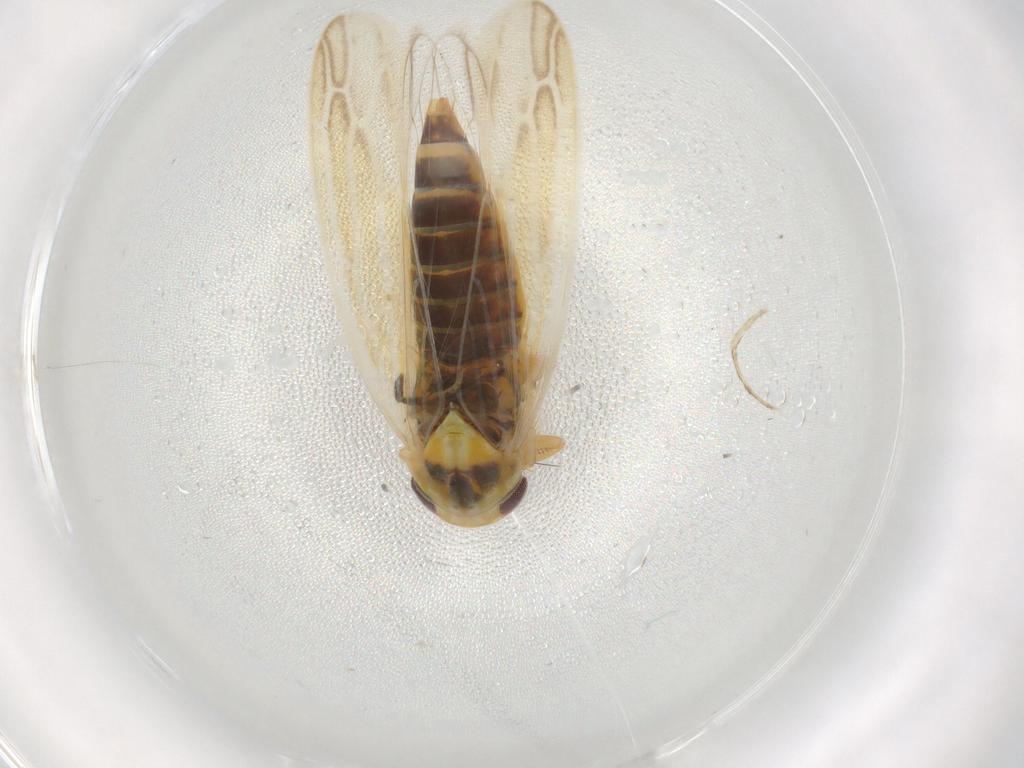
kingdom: Animalia
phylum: Arthropoda
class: Insecta
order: Hemiptera
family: Cicadellidae
